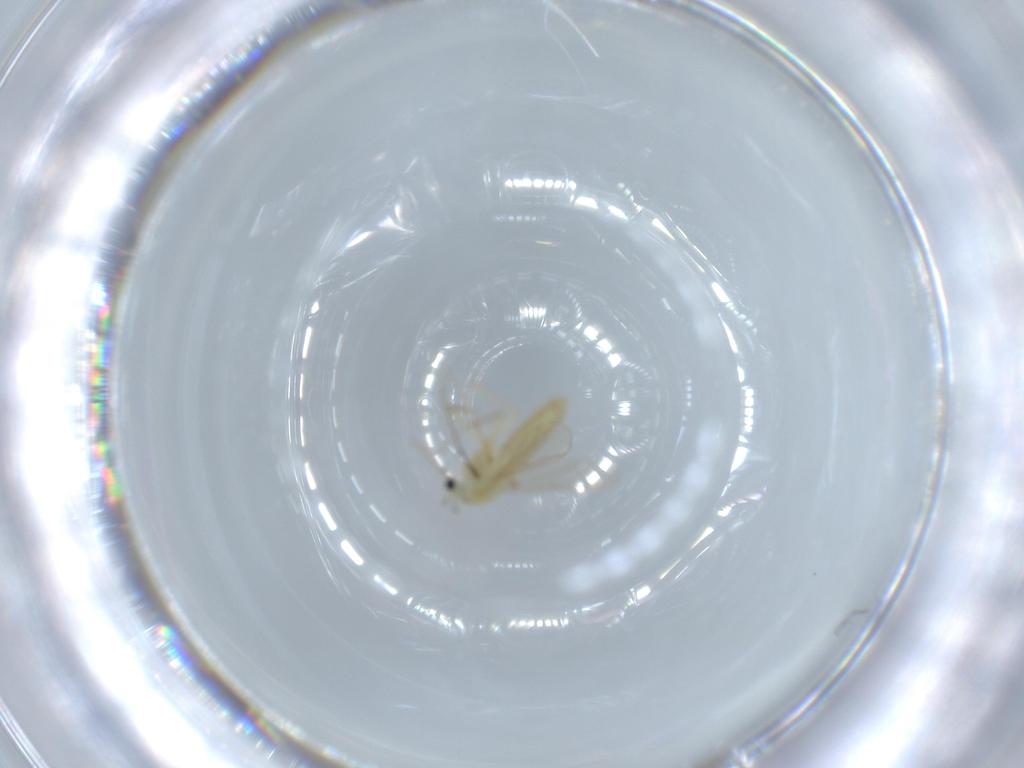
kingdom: Animalia
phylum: Arthropoda
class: Insecta
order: Diptera
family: Chironomidae
